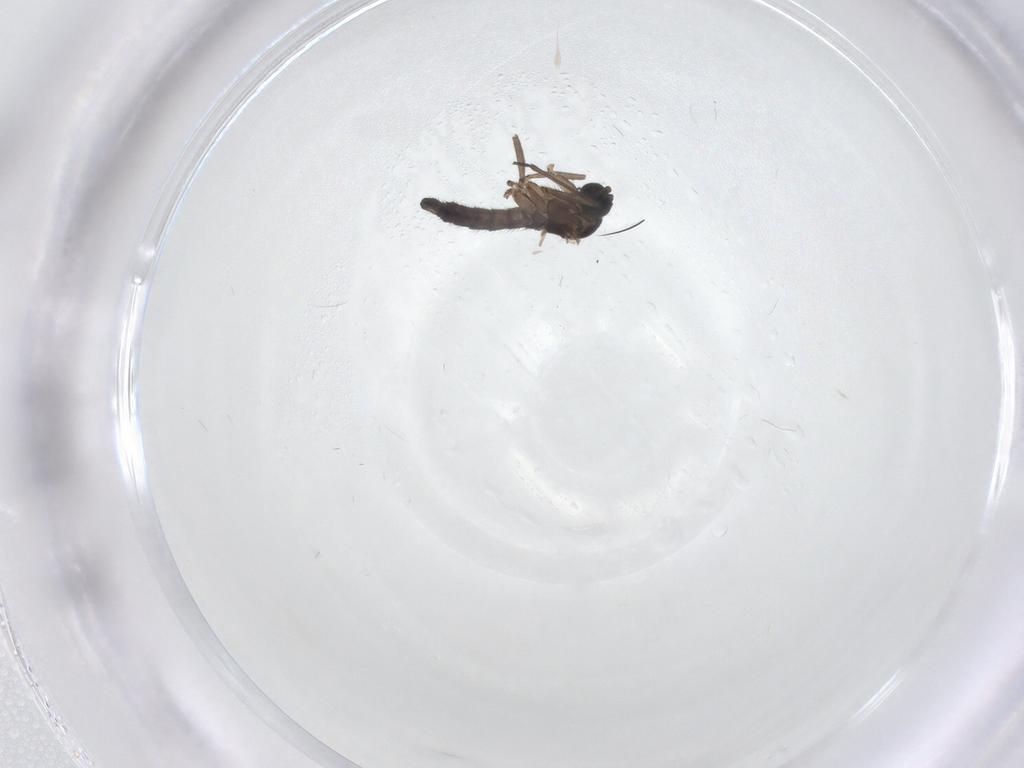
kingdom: Animalia
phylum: Arthropoda
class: Insecta
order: Diptera
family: Sciaridae
